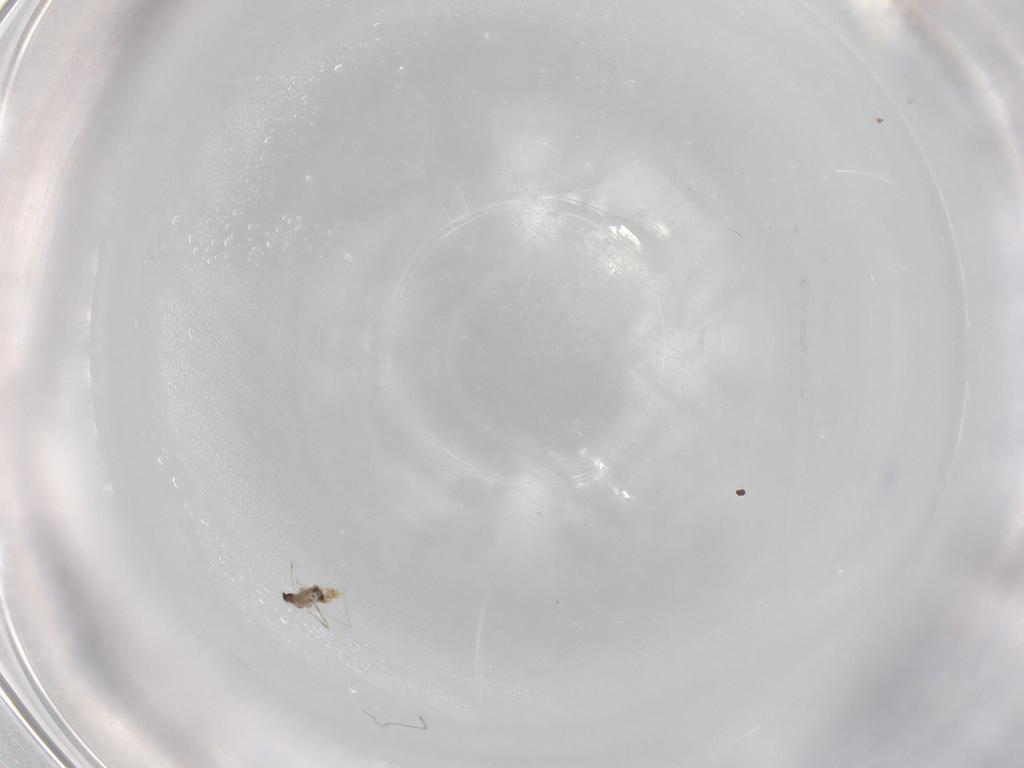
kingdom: Animalia
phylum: Arthropoda
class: Insecta
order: Diptera
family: Cecidomyiidae
